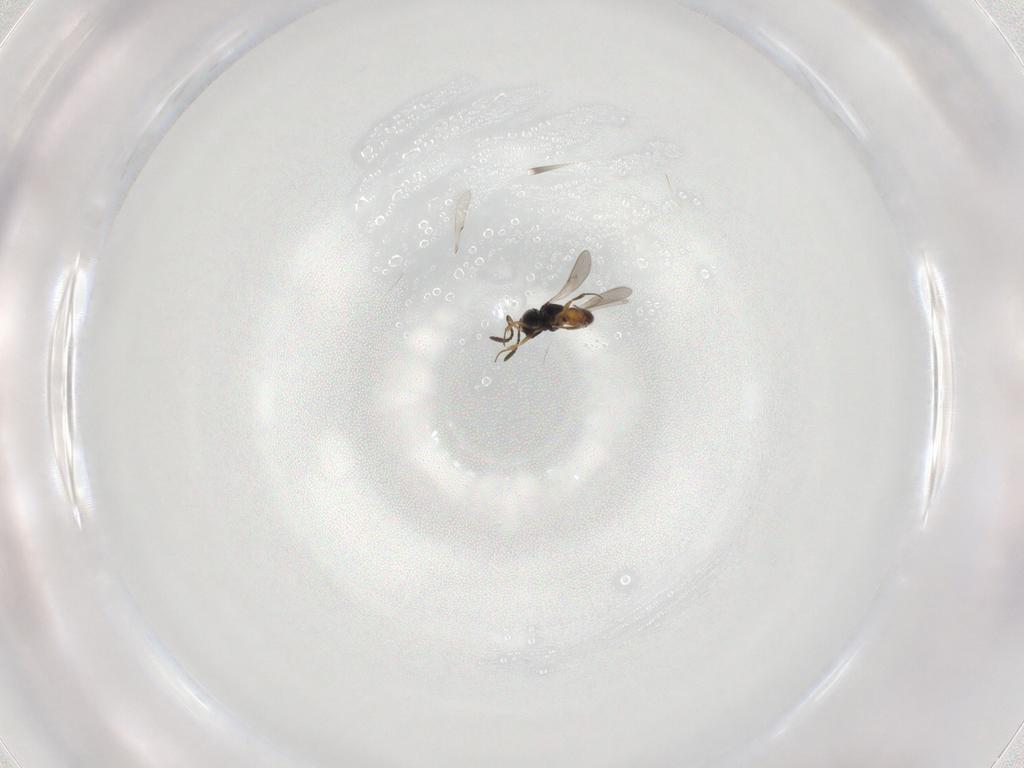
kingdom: Animalia
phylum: Arthropoda
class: Insecta
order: Hymenoptera
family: Scelionidae
